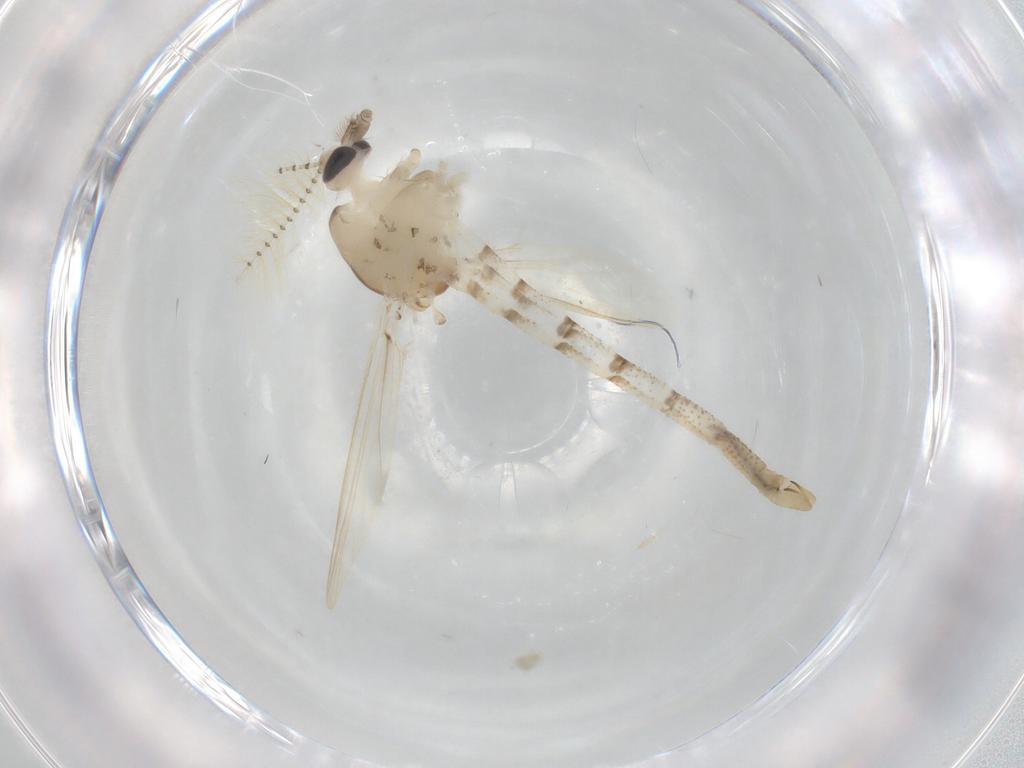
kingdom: Animalia
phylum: Arthropoda
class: Insecta
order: Diptera
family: Chaoboridae
